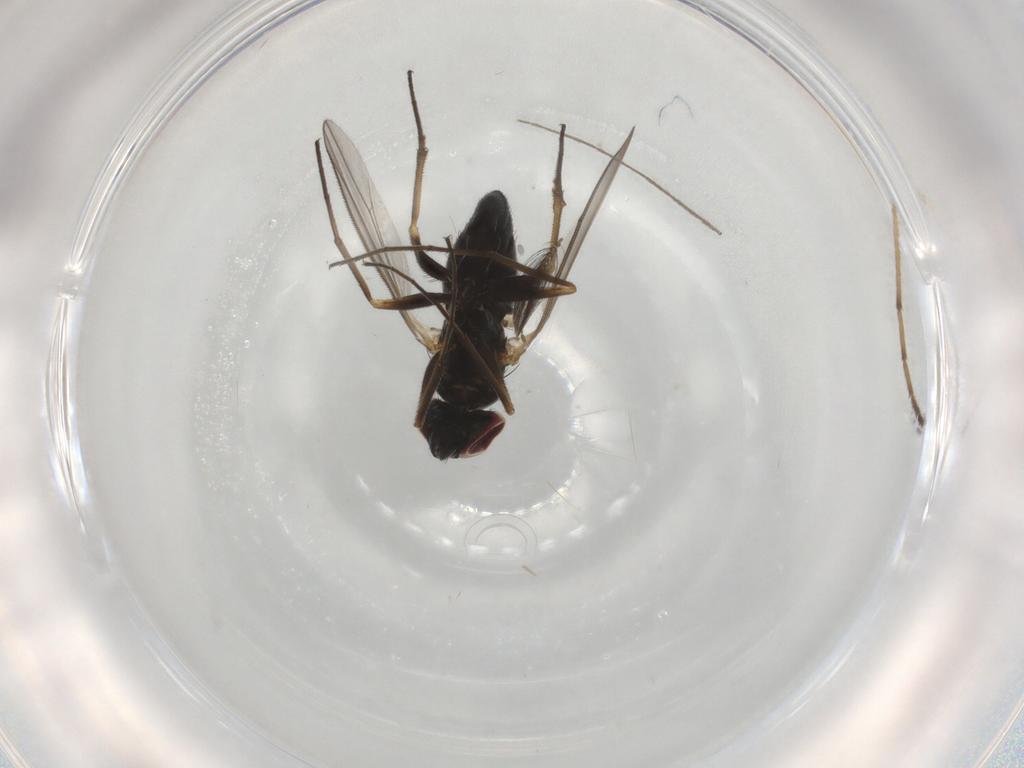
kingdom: Animalia
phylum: Arthropoda
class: Insecta
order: Diptera
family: Dolichopodidae
